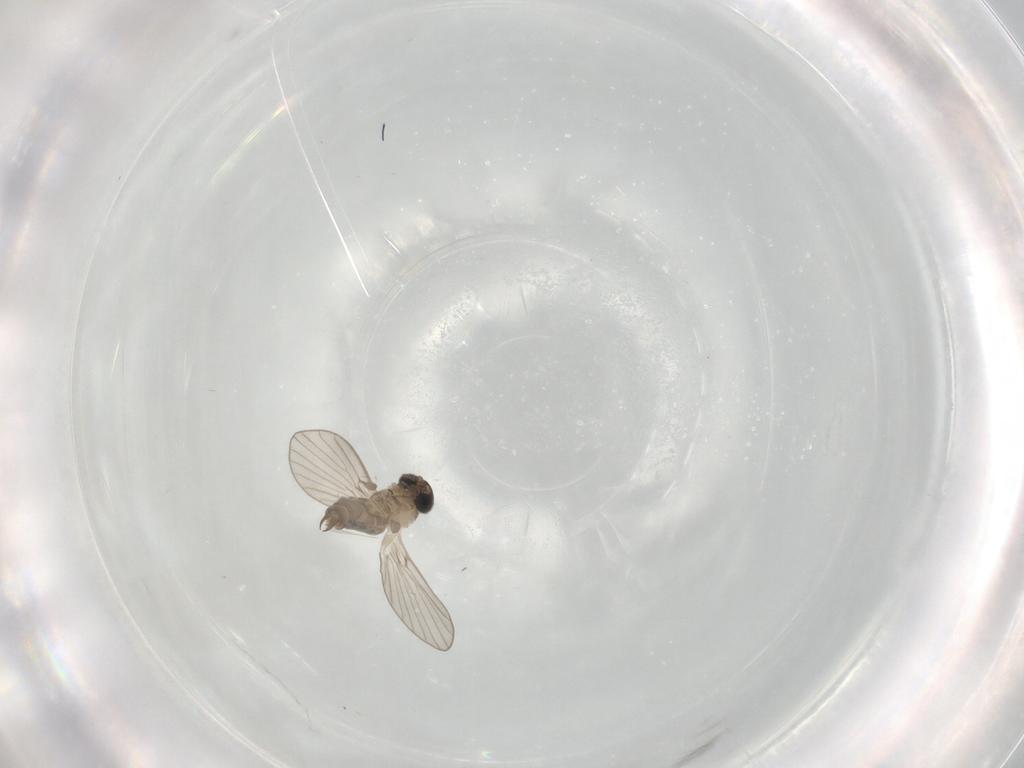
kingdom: Animalia
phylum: Arthropoda
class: Insecta
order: Diptera
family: Psychodidae
